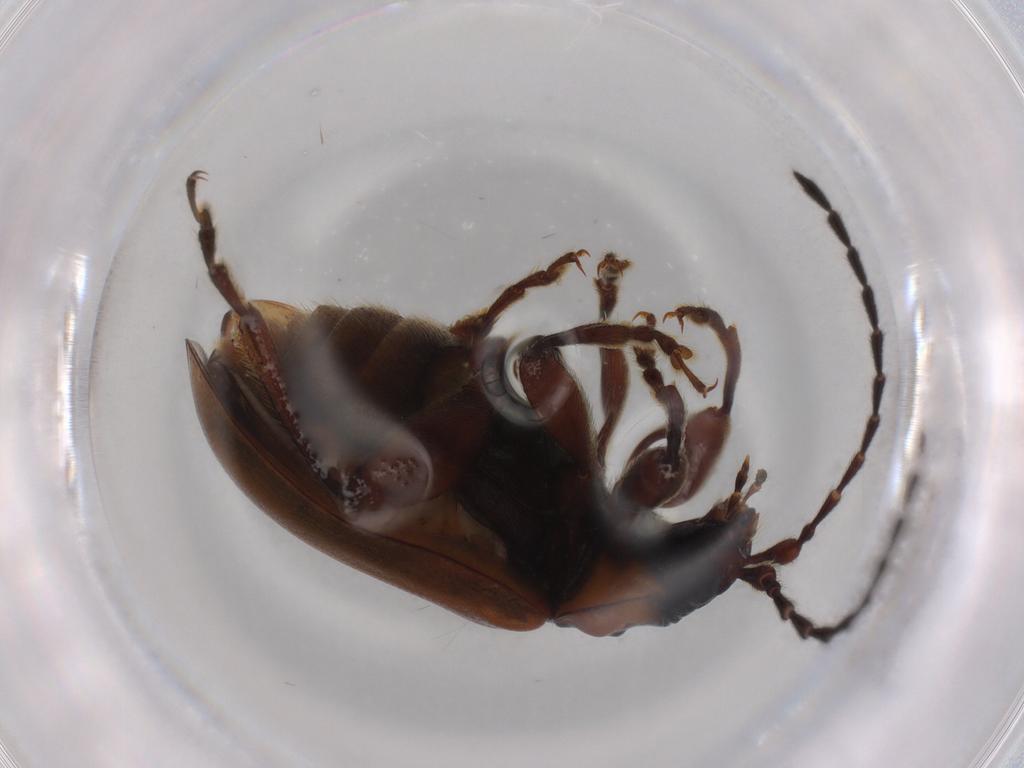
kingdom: Animalia
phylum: Arthropoda
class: Insecta
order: Coleoptera
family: Chrysomelidae
